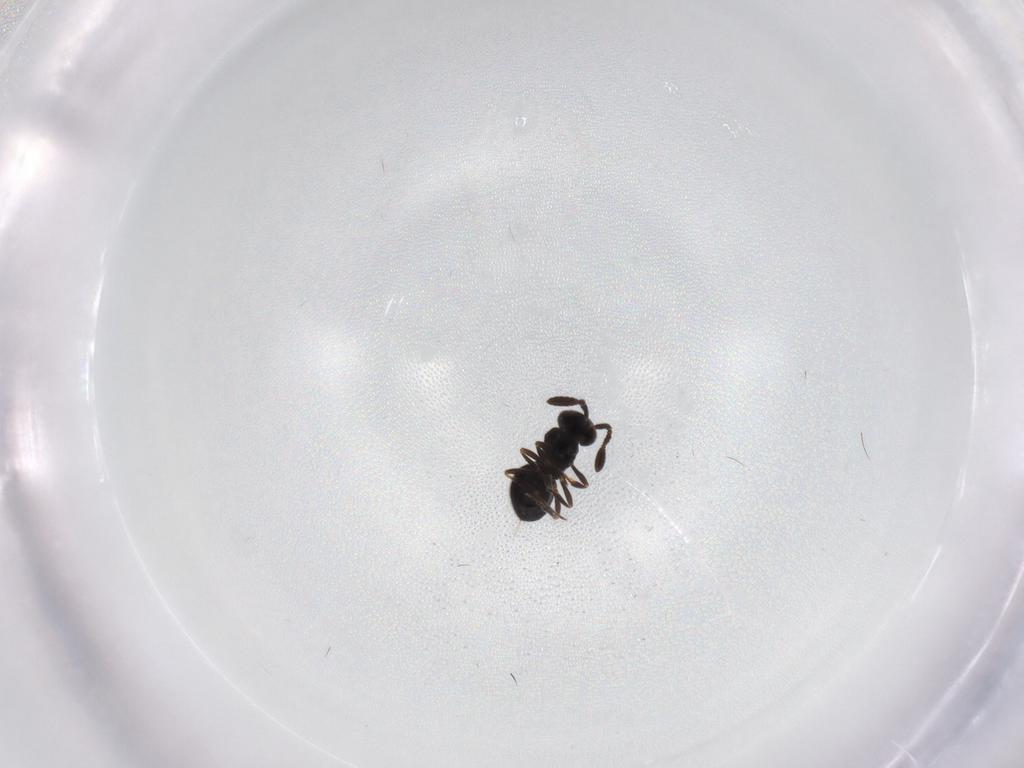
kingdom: Animalia
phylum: Arthropoda
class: Insecta
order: Hymenoptera
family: Scelionidae
